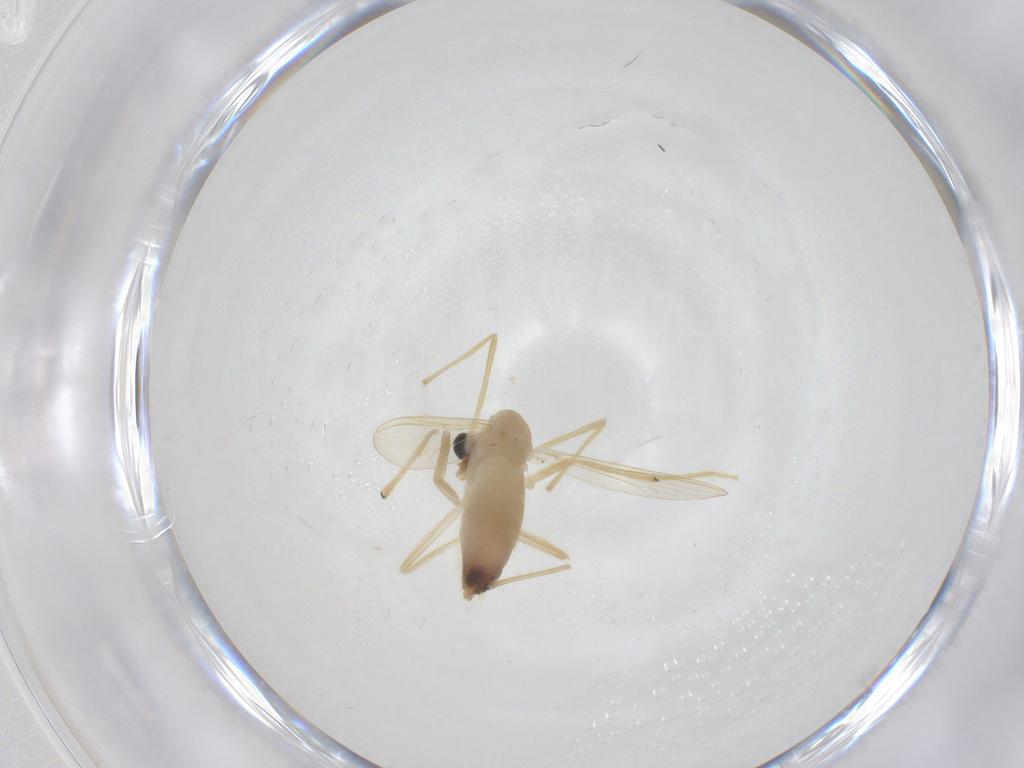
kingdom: Animalia
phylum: Arthropoda
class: Insecta
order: Diptera
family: Chironomidae
